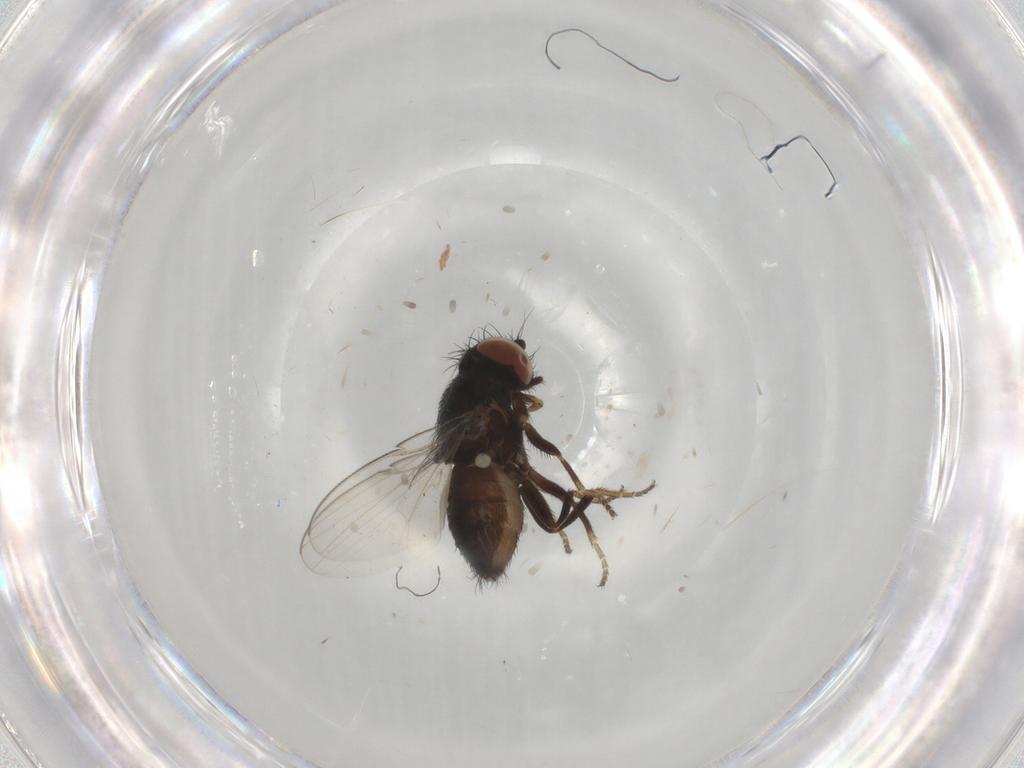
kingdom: Animalia
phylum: Arthropoda
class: Insecta
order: Diptera
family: Milichiidae
